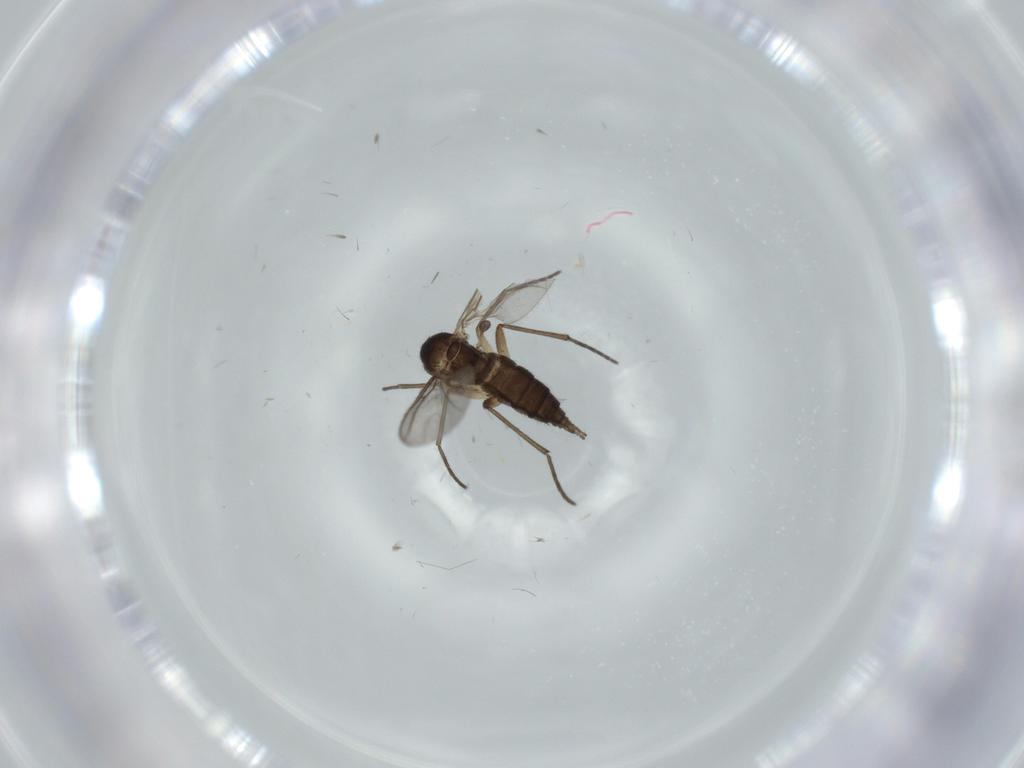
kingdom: Animalia
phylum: Arthropoda
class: Insecta
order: Diptera
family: Sciaridae
